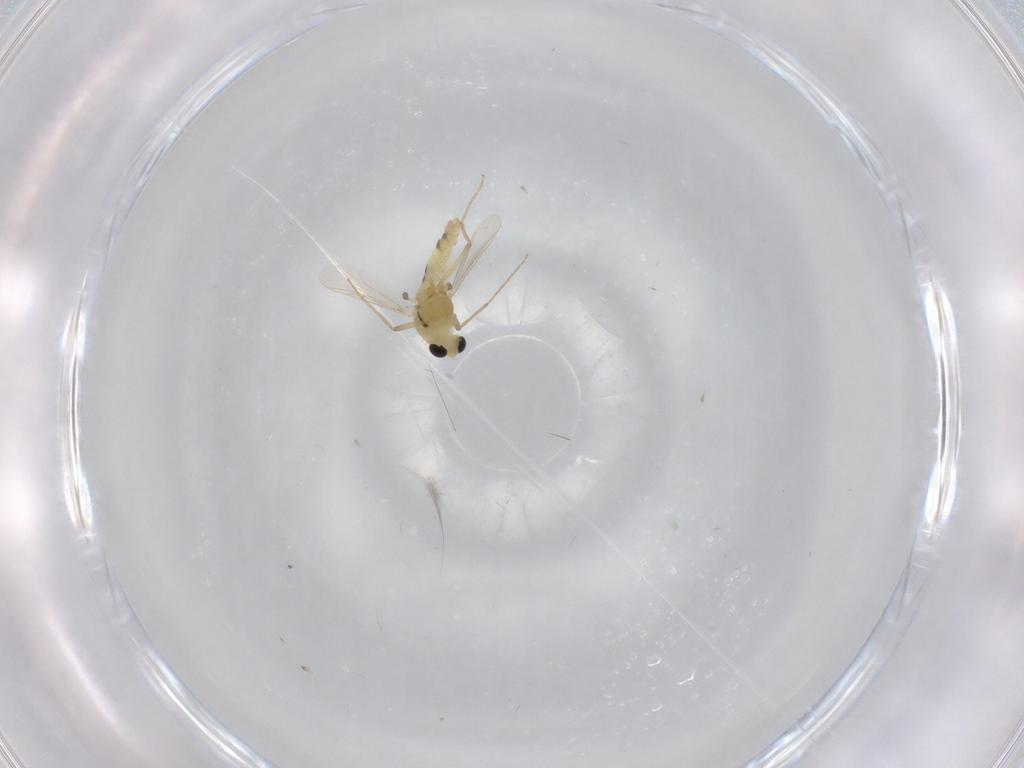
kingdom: Animalia
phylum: Arthropoda
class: Insecta
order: Diptera
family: Chironomidae
